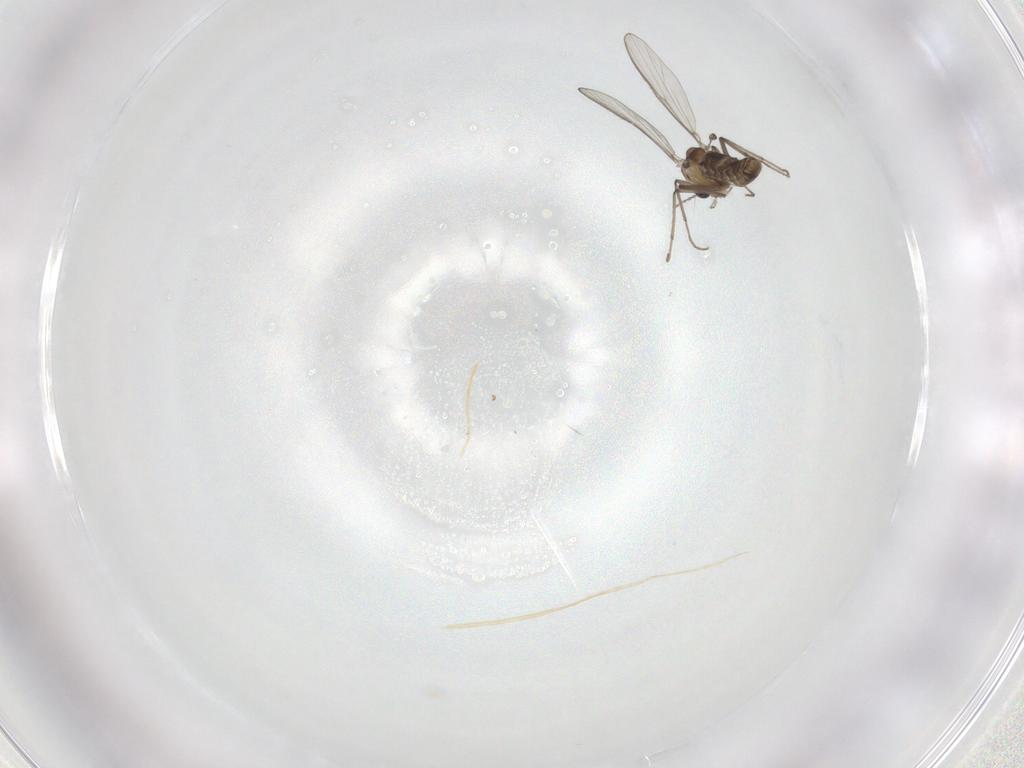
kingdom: Animalia
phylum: Arthropoda
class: Insecta
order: Diptera
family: Chironomidae
